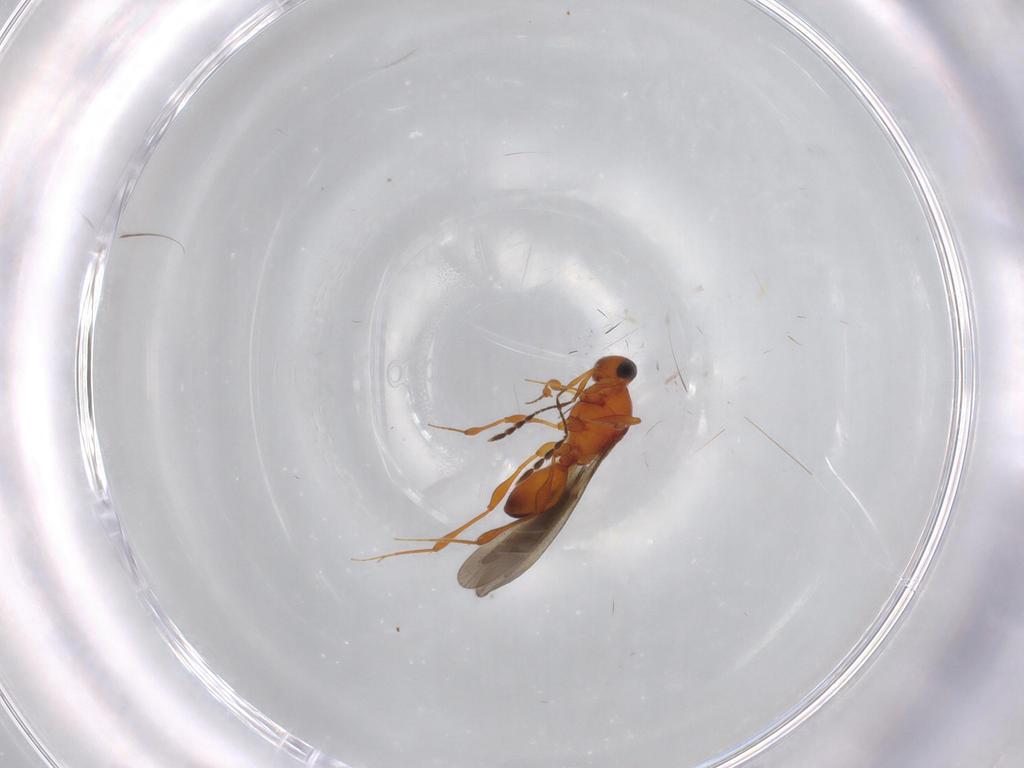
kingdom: Animalia
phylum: Arthropoda
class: Insecta
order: Hymenoptera
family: Platygastridae
